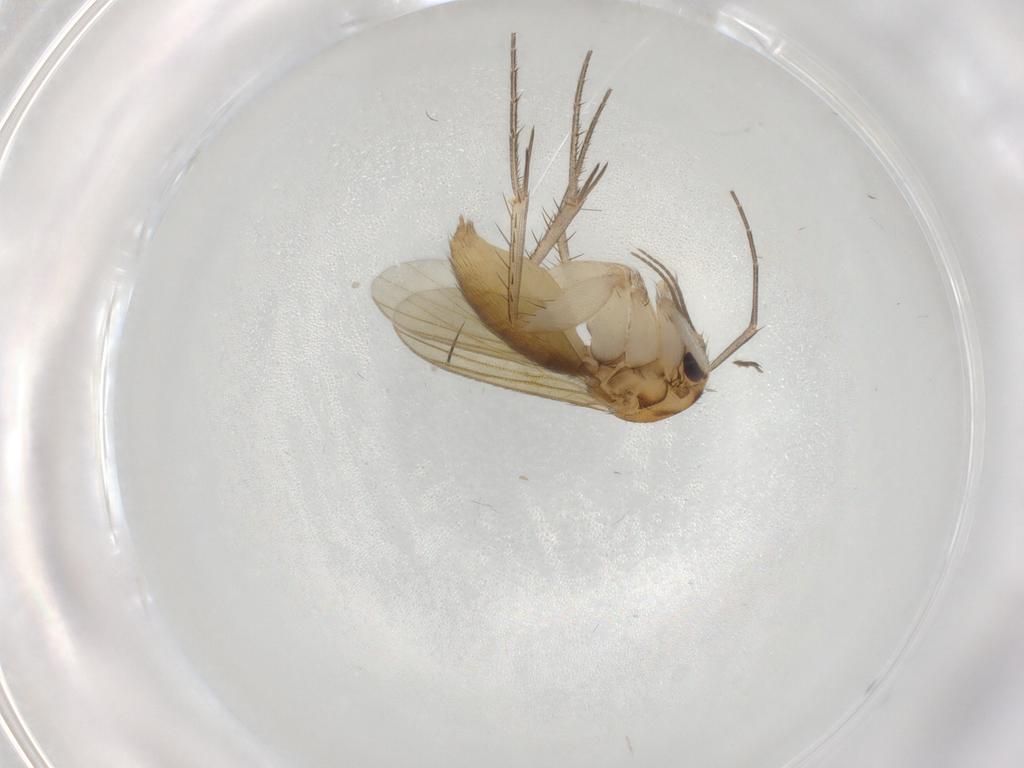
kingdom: Animalia
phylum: Arthropoda
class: Insecta
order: Diptera
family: Mycetophilidae
